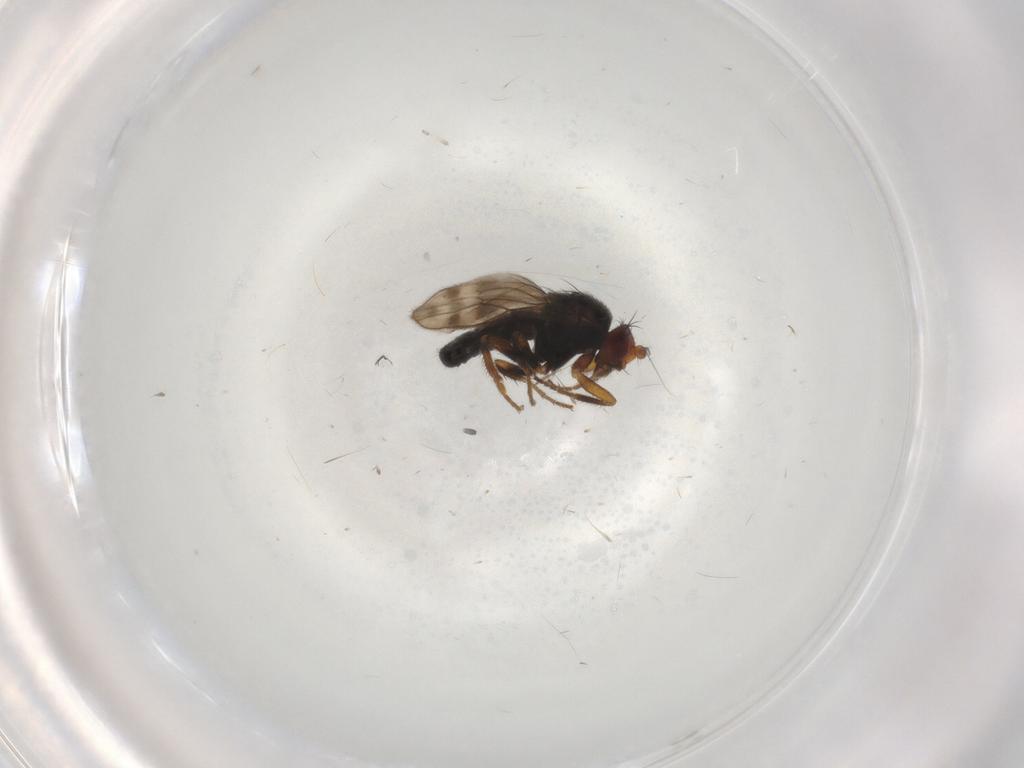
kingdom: Animalia
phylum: Arthropoda
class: Insecta
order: Diptera
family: Sphaeroceridae
